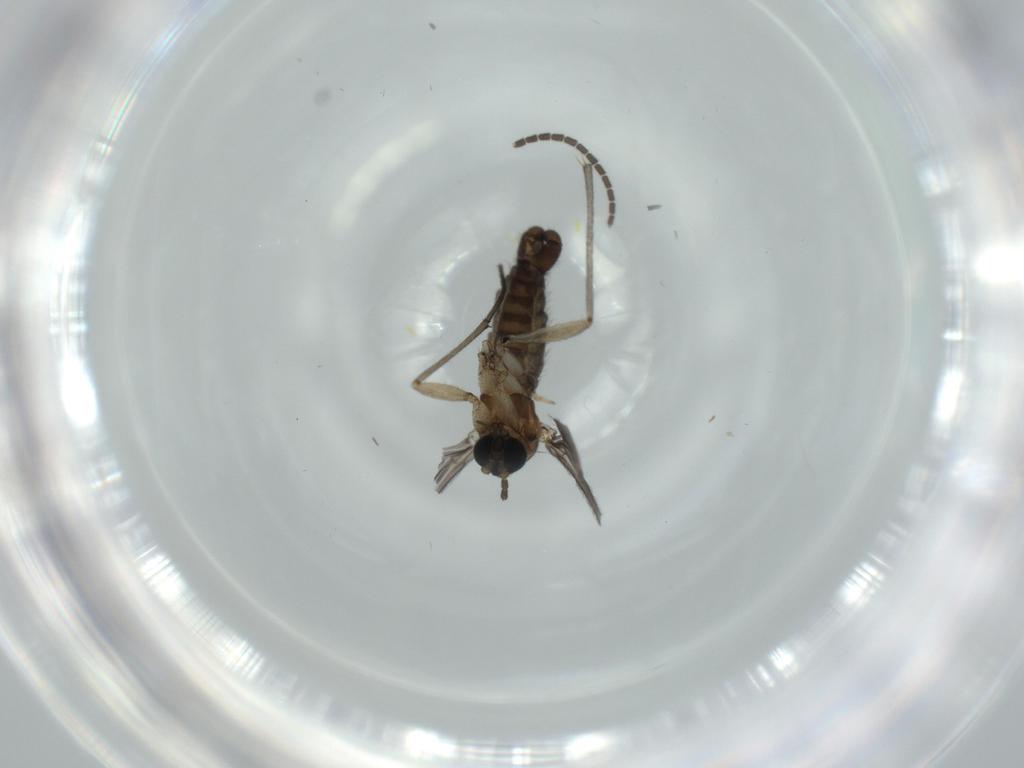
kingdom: Animalia
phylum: Arthropoda
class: Insecta
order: Diptera
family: Sciaridae
